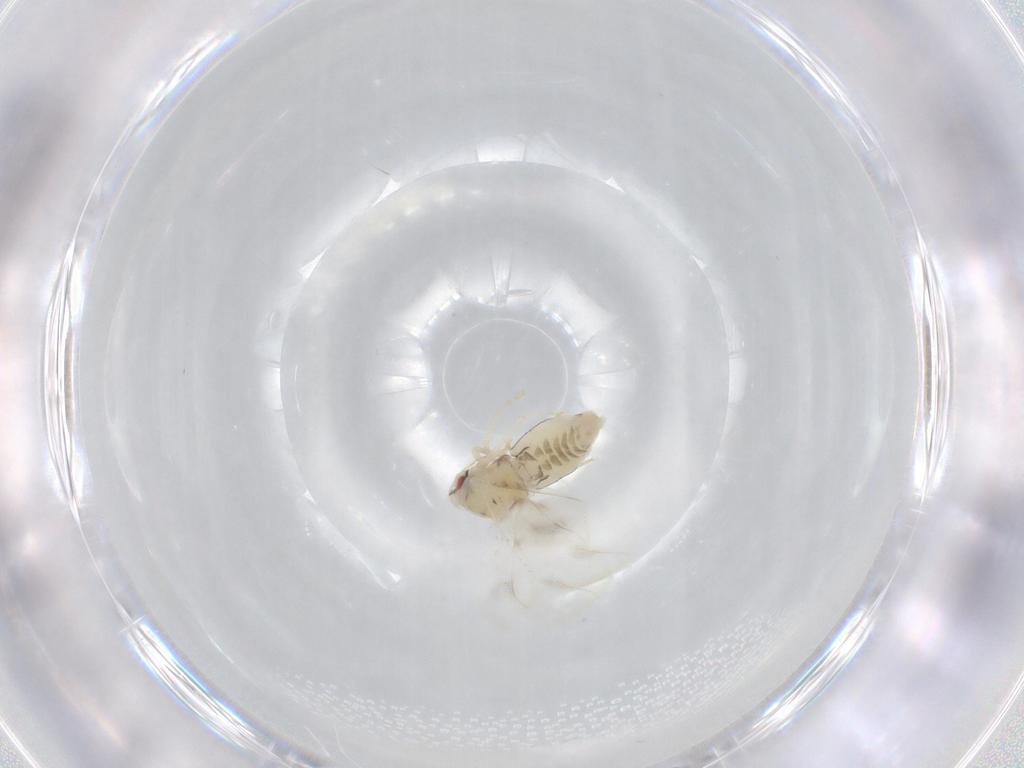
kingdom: Animalia
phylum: Arthropoda
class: Insecta
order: Hemiptera
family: Aleyrodidae
